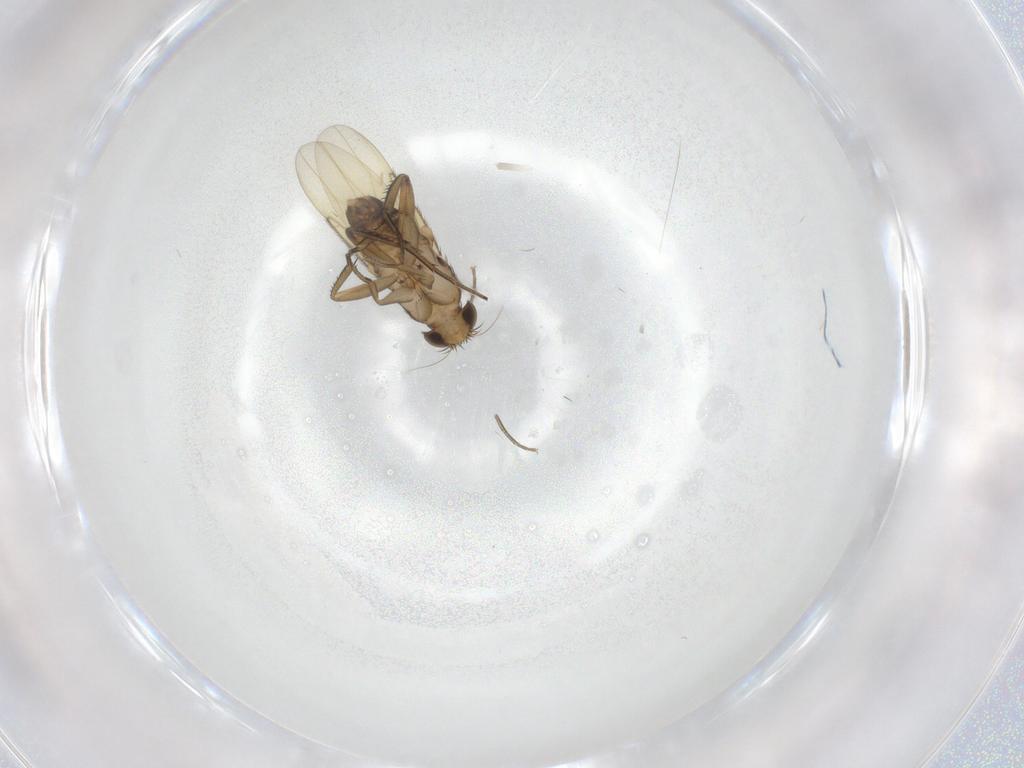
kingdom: Animalia
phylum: Arthropoda
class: Insecta
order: Diptera
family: Phoridae
